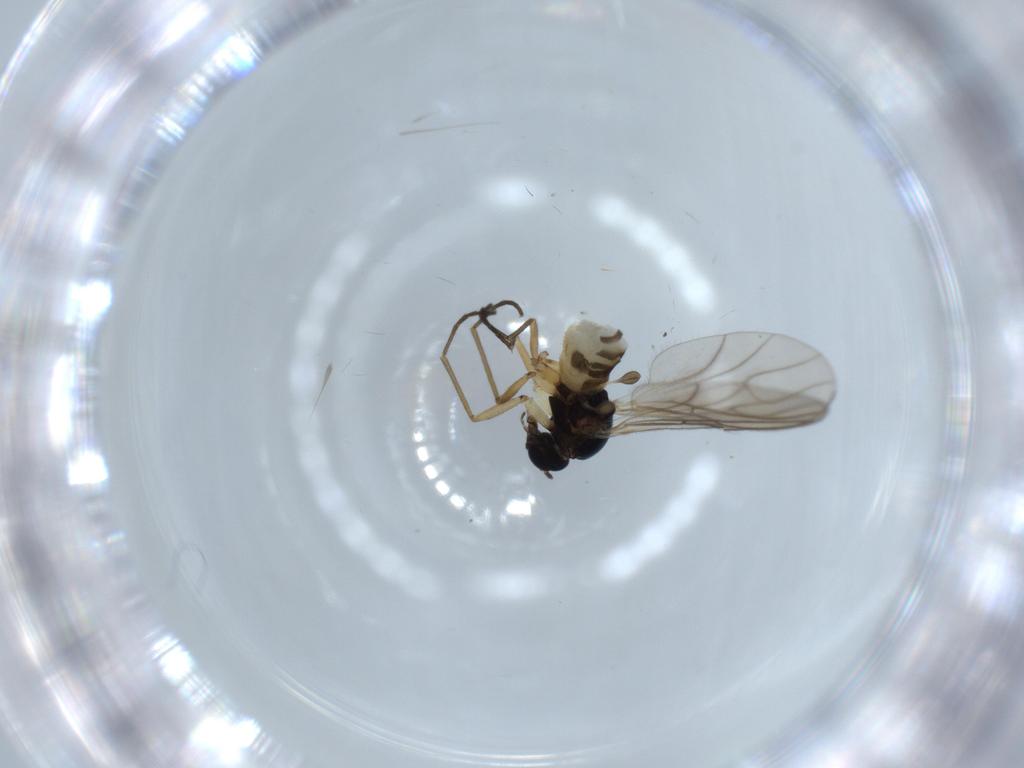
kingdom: Animalia
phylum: Arthropoda
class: Insecta
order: Diptera
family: Sciaridae
